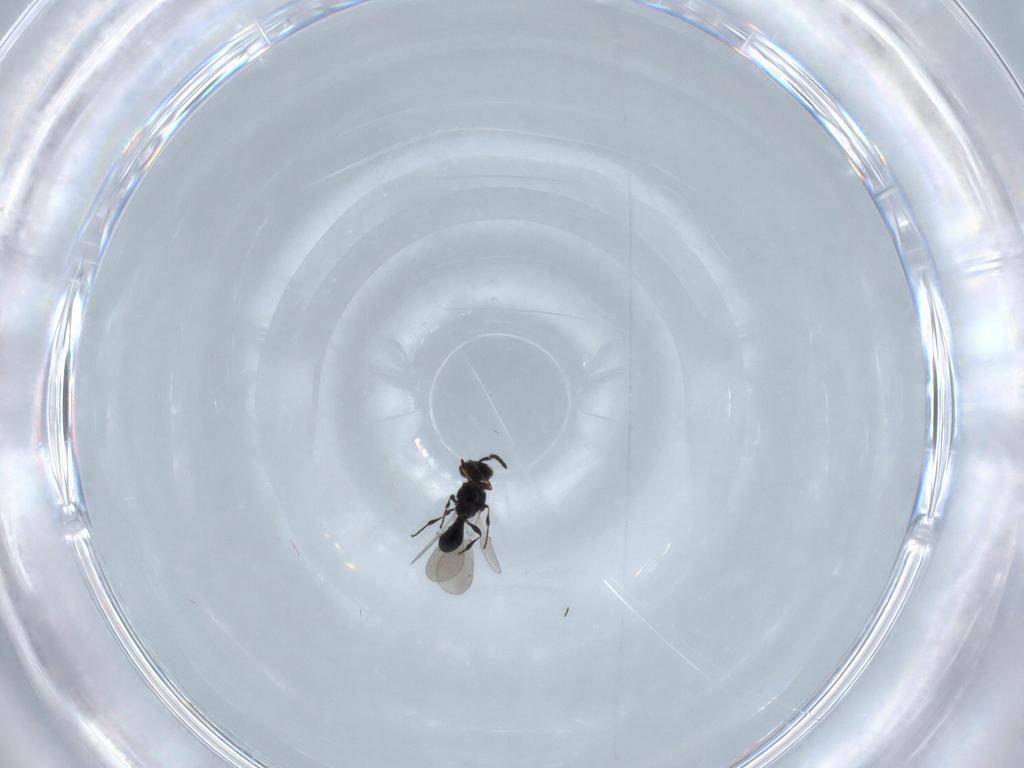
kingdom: Animalia
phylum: Arthropoda
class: Insecta
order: Hymenoptera
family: Platygastridae
